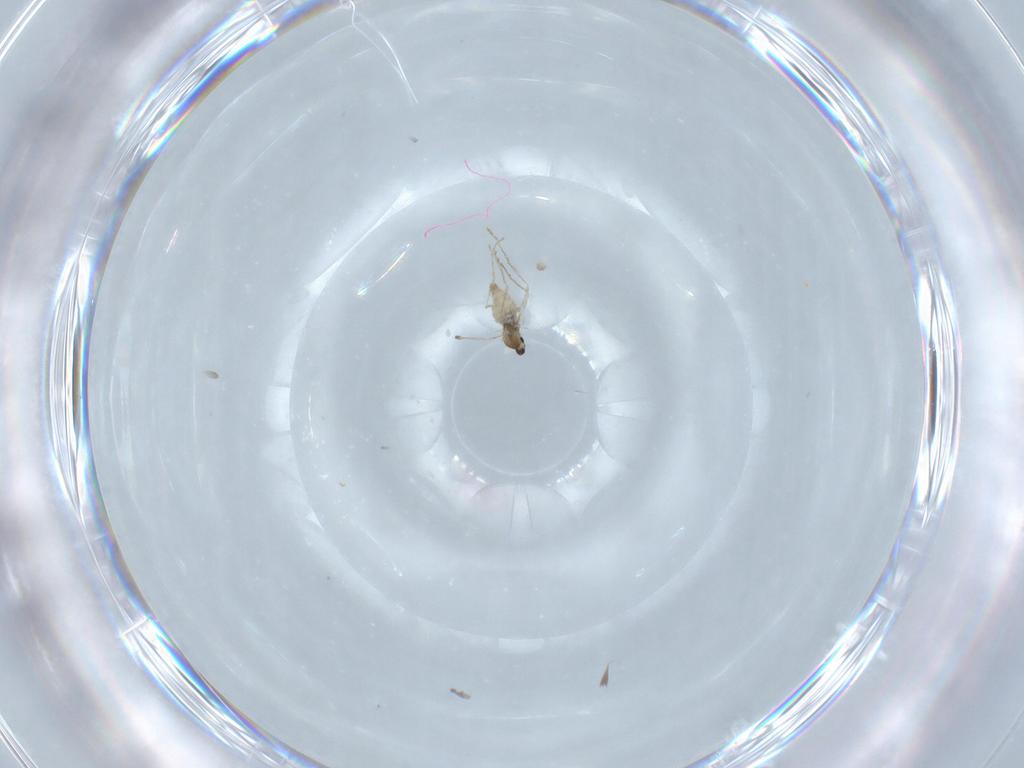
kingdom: Animalia
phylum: Arthropoda
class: Insecta
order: Diptera
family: Cecidomyiidae
